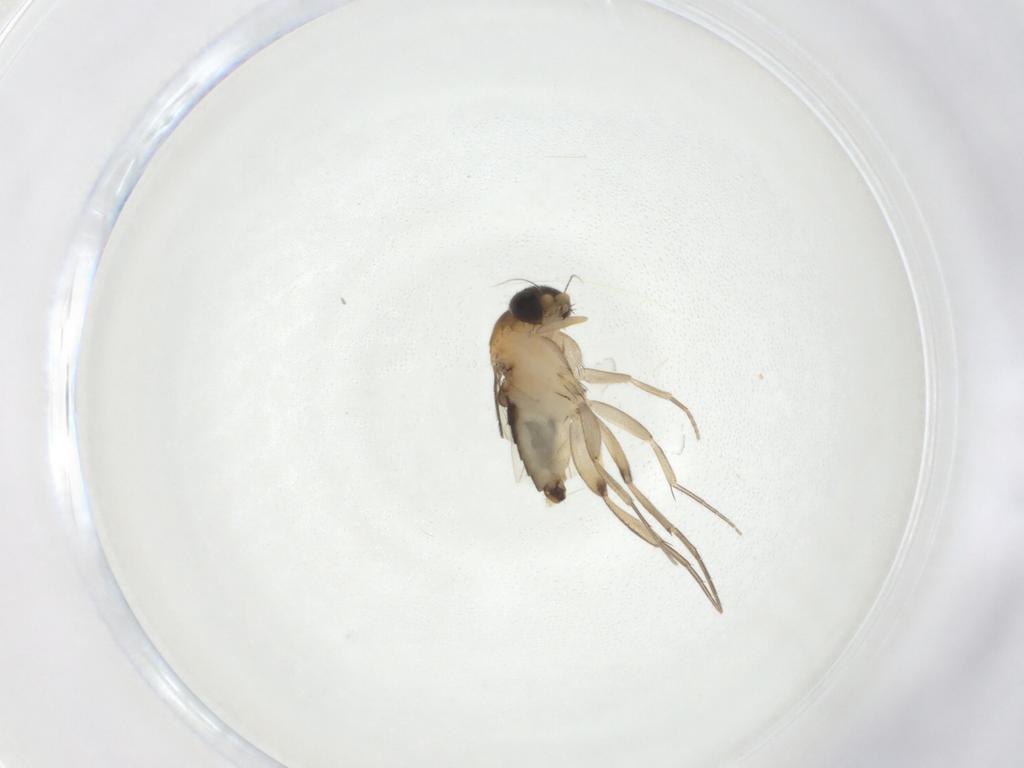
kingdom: Animalia
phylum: Arthropoda
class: Insecta
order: Diptera
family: Phoridae
